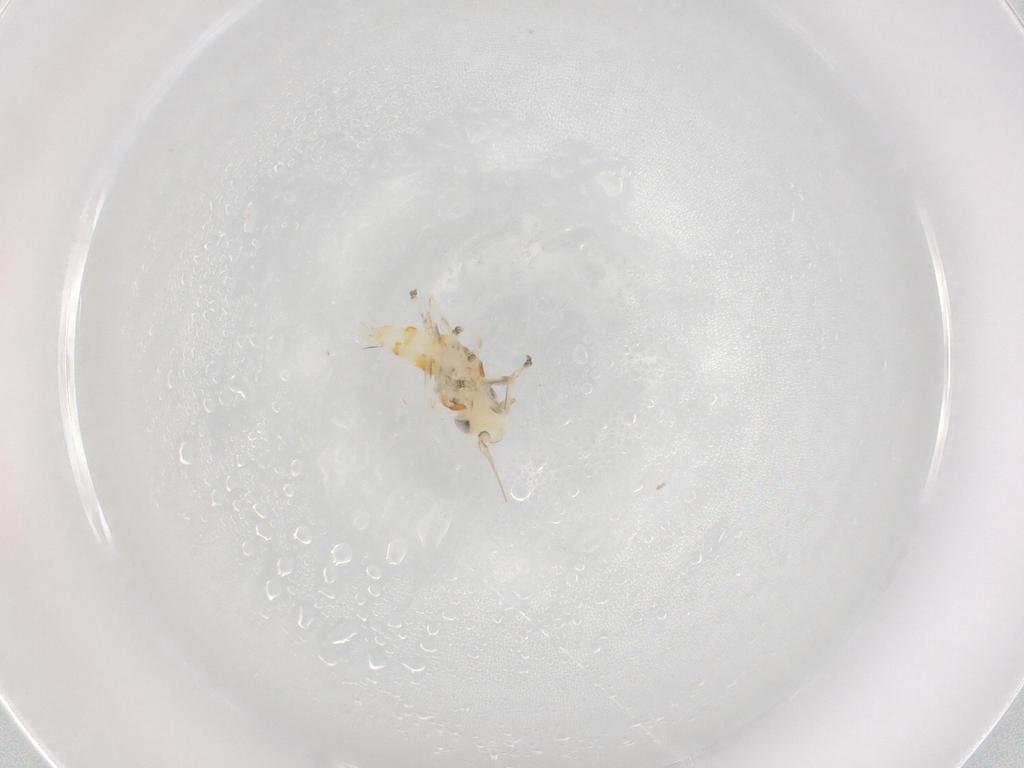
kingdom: Animalia
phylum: Arthropoda
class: Insecta
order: Hemiptera
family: Cicadellidae
